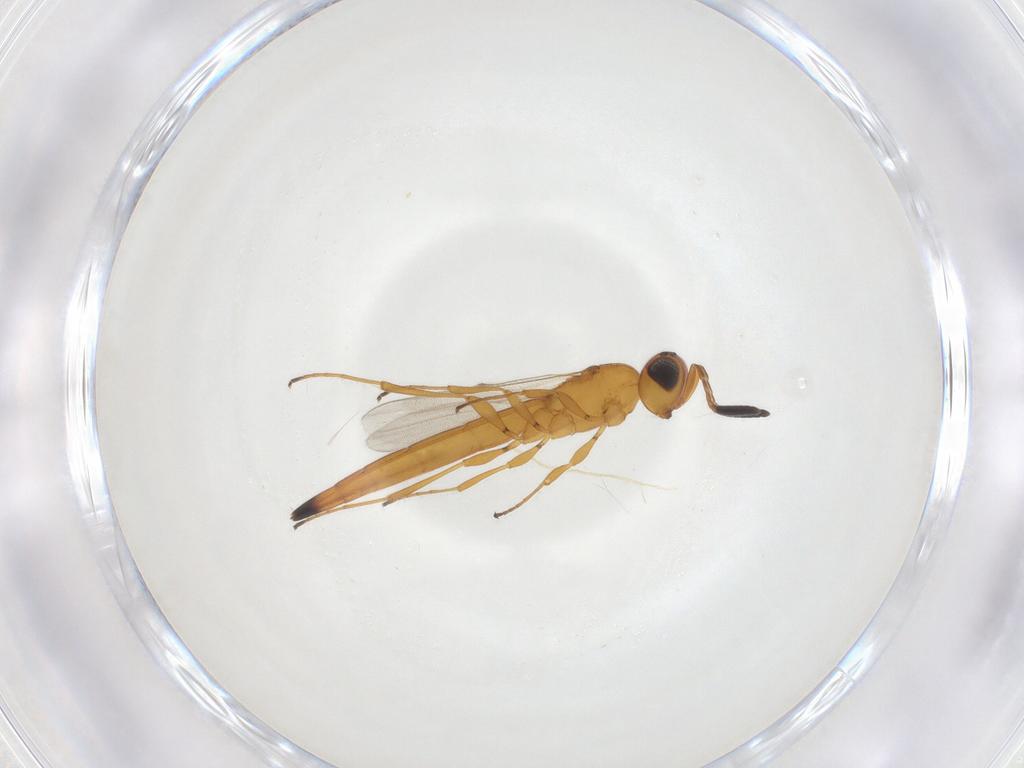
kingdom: Animalia
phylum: Arthropoda
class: Insecta
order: Hymenoptera
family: Scelionidae
